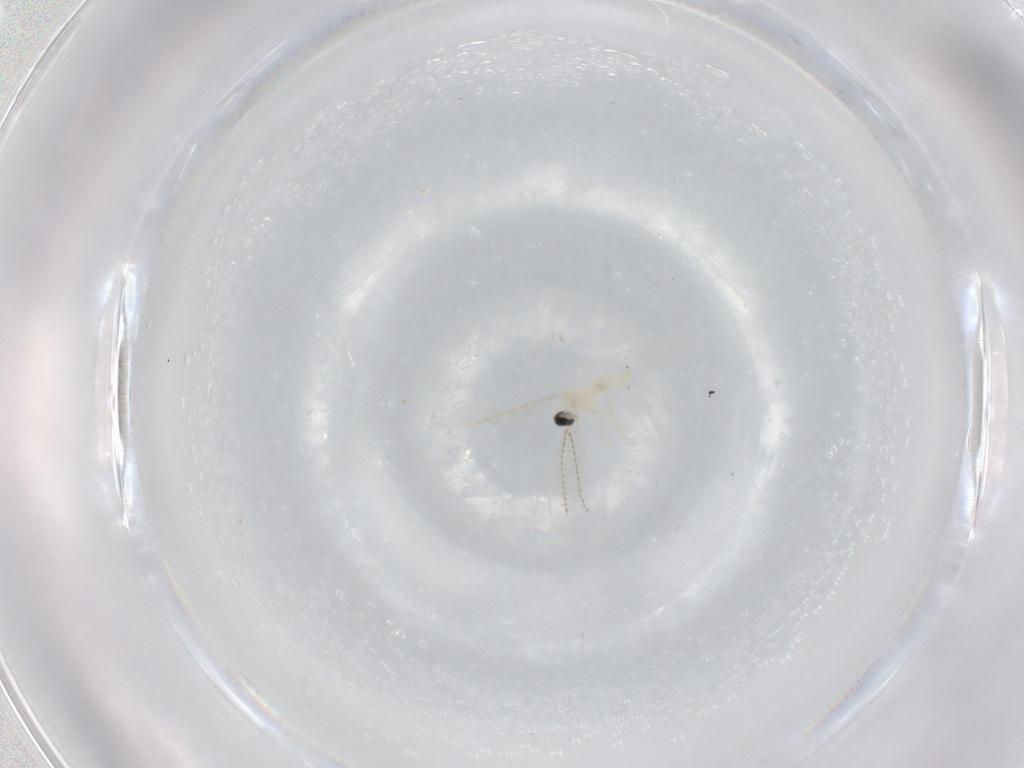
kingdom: Animalia
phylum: Arthropoda
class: Insecta
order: Diptera
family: Cecidomyiidae
